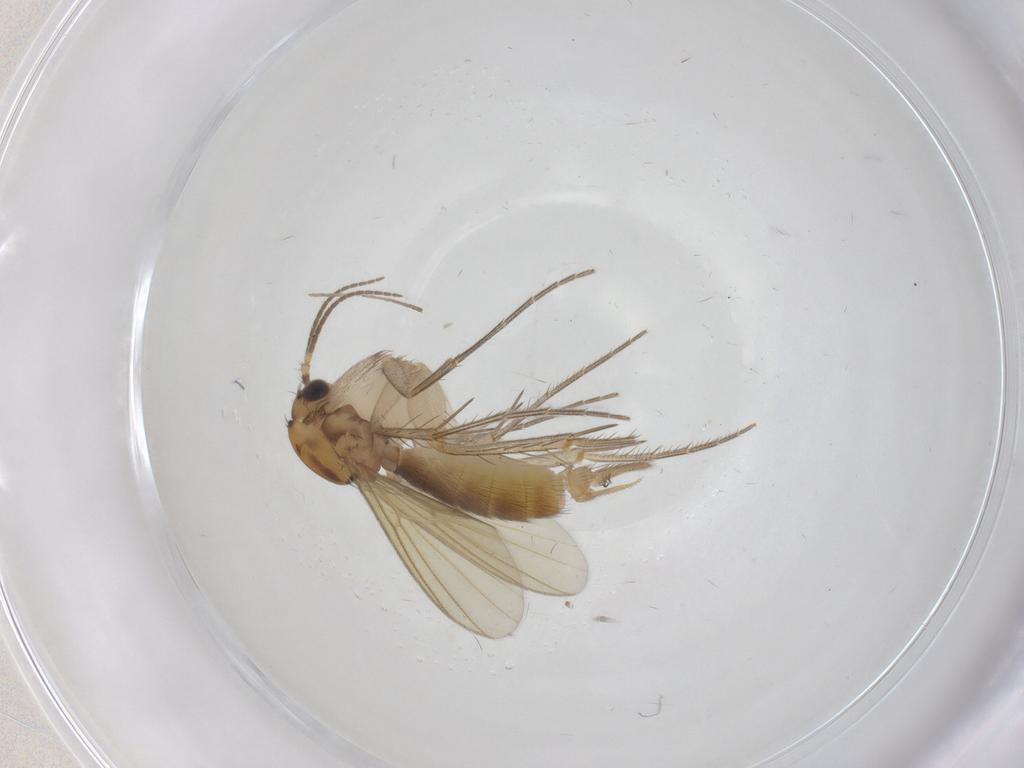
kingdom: Animalia
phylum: Arthropoda
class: Insecta
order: Diptera
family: Mycetophilidae
